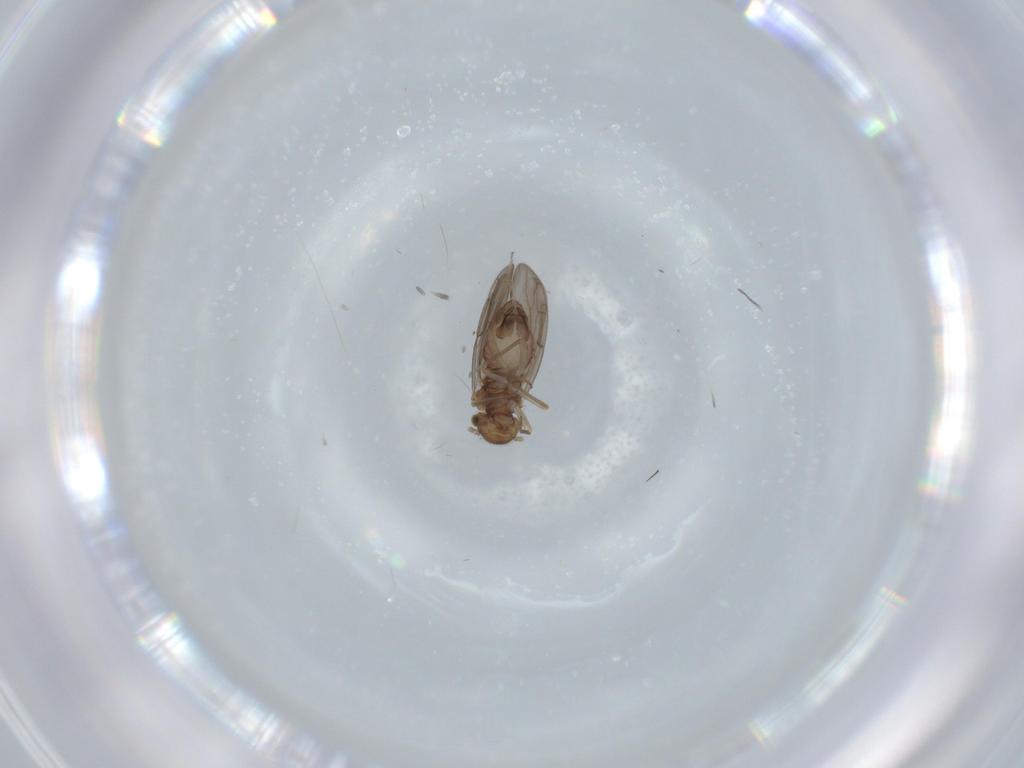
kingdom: Animalia
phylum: Arthropoda
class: Insecta
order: Psocodea
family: Ectopsocidae
